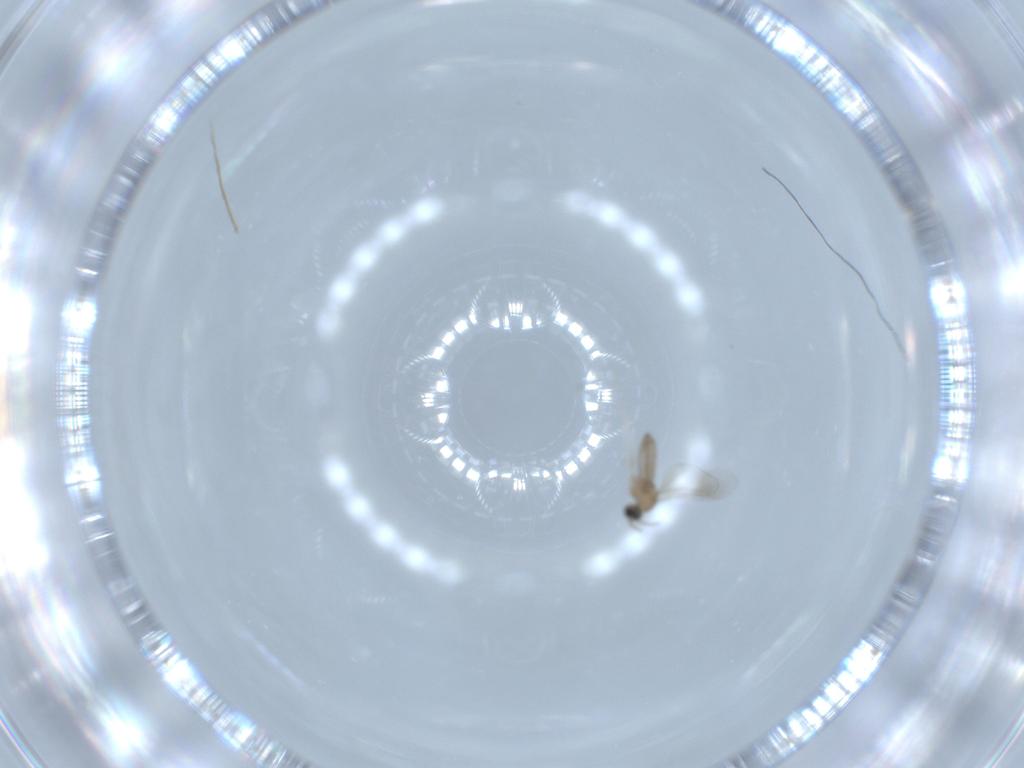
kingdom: Animalia
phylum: Arthropoda
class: Insecta
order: Diptera
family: Cecidomyiidae
